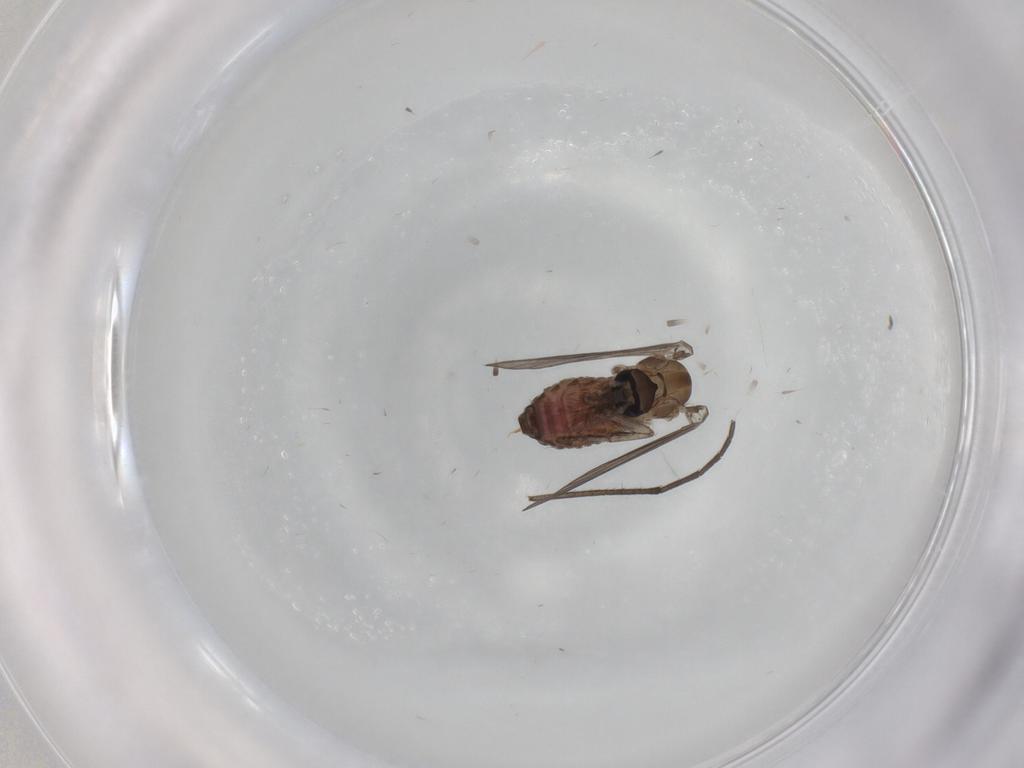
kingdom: Animalia
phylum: Arthropoda
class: Insecta
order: Diptera
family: Psychodidae
